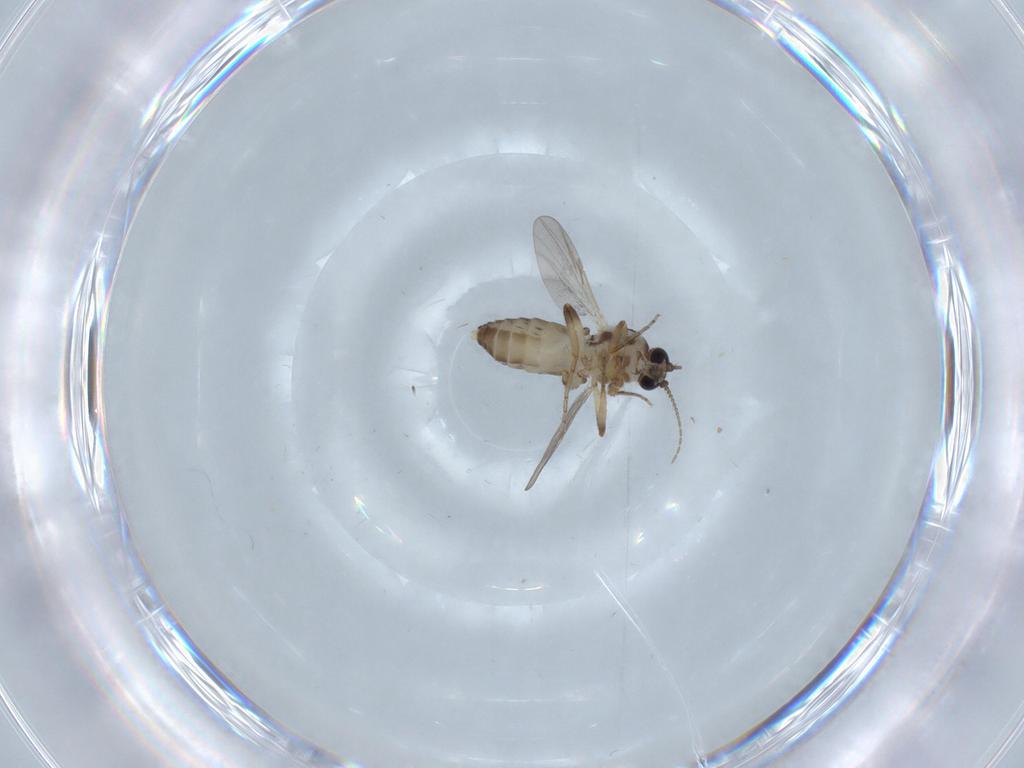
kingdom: Animalia
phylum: Arthropoda
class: Insecta
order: Diptera
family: Ceratopogonidae
